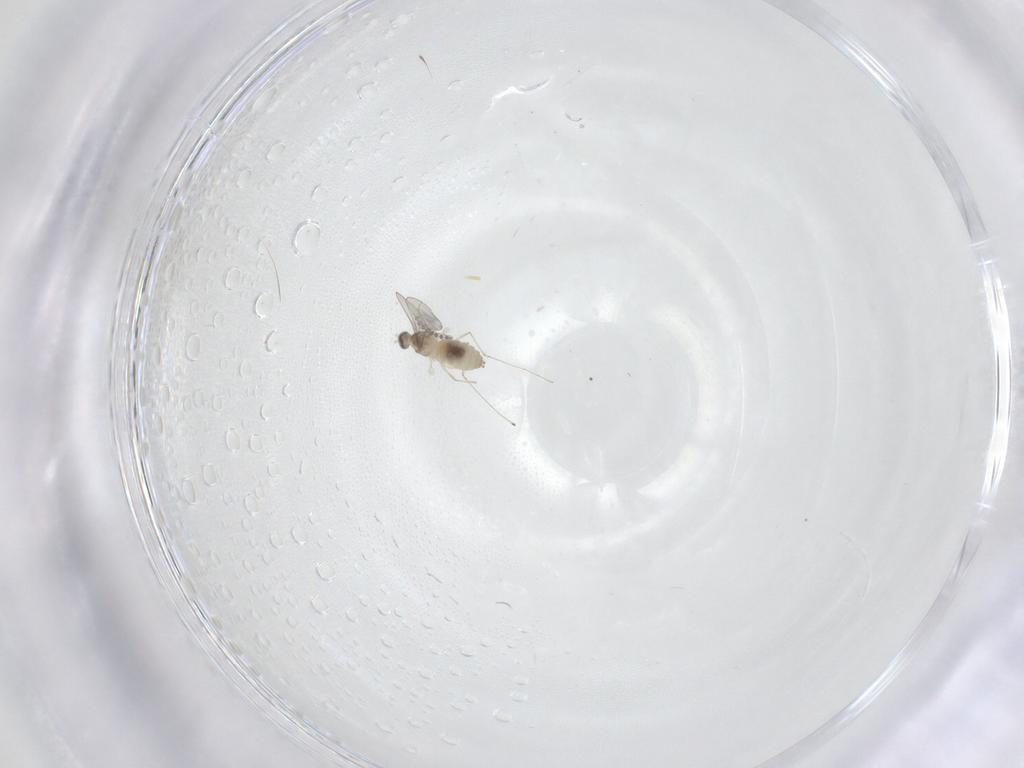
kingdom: Animalia
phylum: Arthropoda
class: Insecta
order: Diptera
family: Cecidomyiidae
